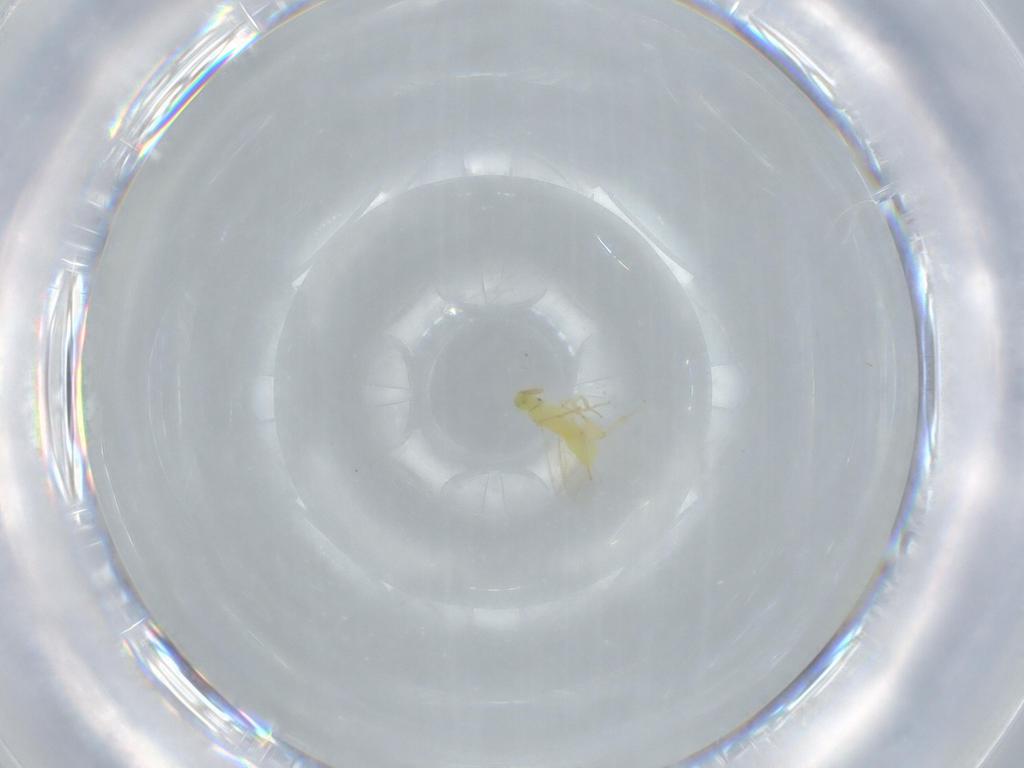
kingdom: Animalia
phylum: Arthropoda
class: Insecta
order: Hymenoptera
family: Aphelinidae
